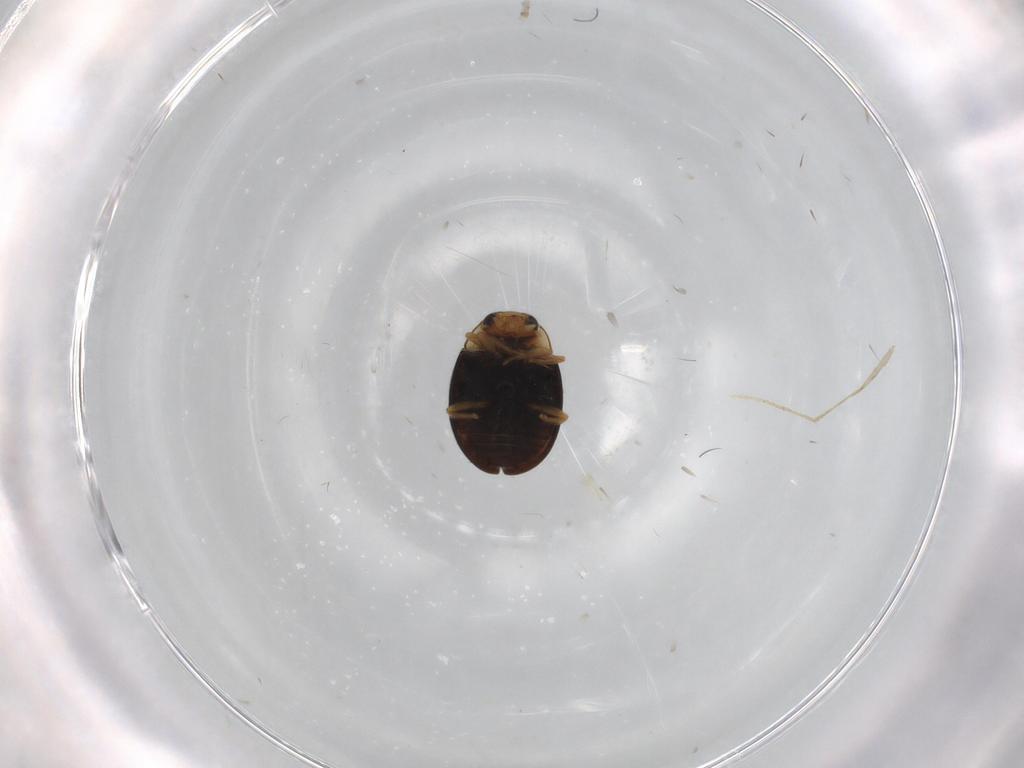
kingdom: Animalia
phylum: Arthropoda
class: Insecta
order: Coleoptera
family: Coccinellidae
